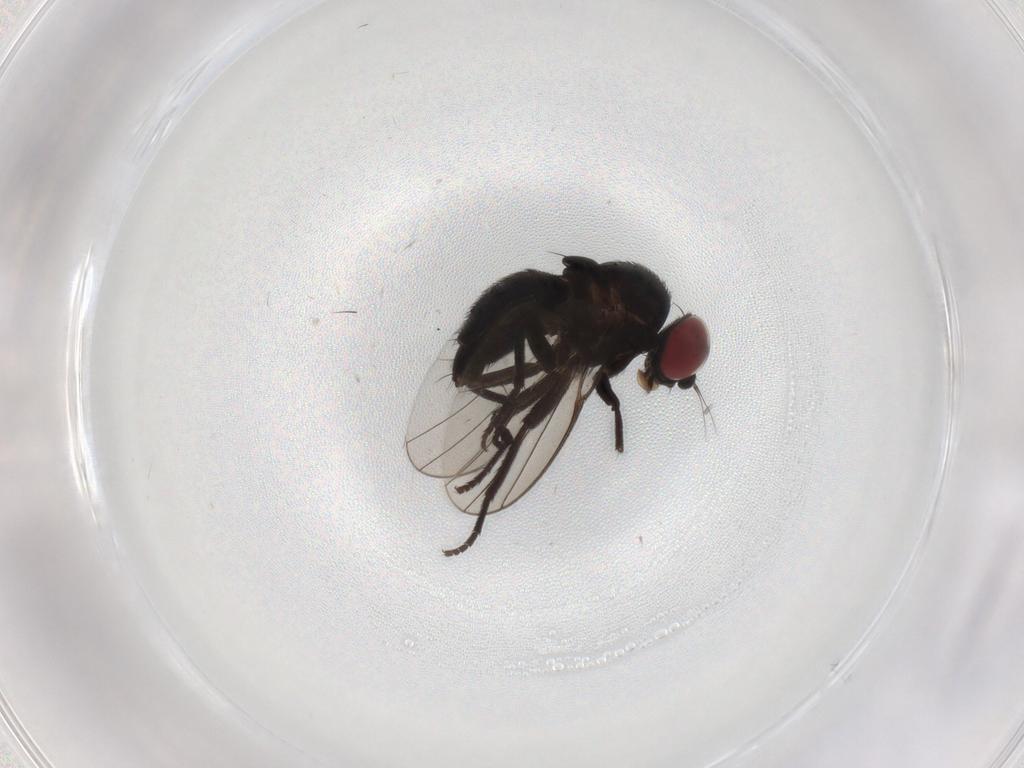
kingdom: Animalia
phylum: Arthropoda
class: Insecta
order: Diptera
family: Agromyzidae
